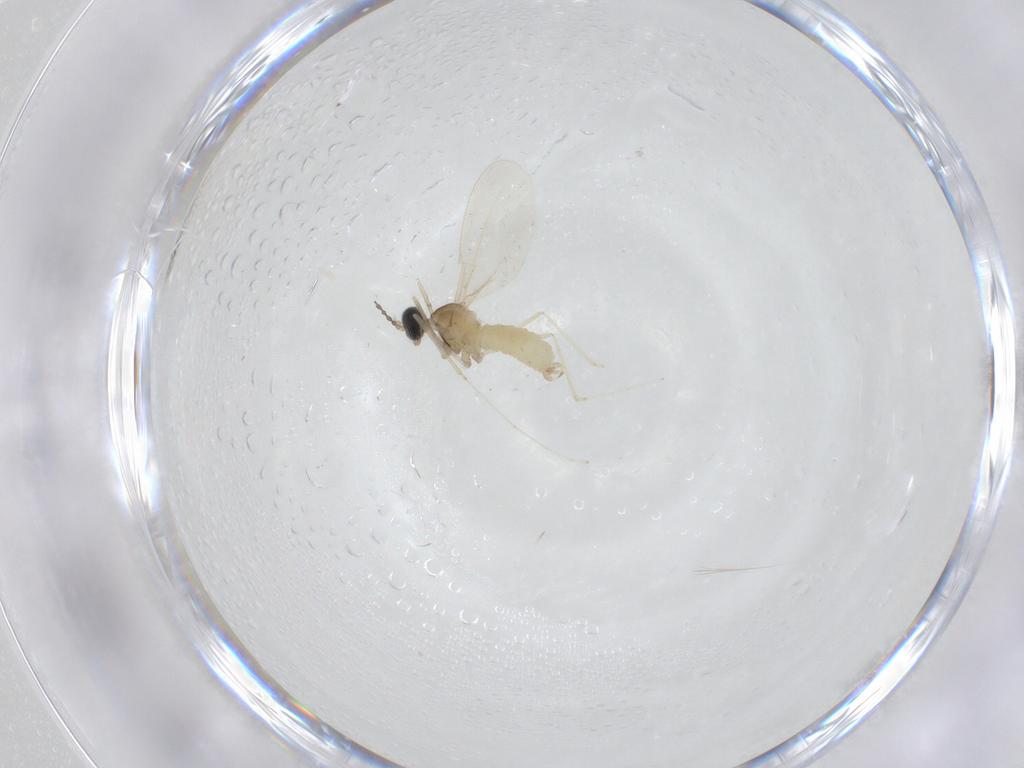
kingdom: Animalia
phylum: Arthropoda
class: Insecta
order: Diptera
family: Cecidomyiidae
